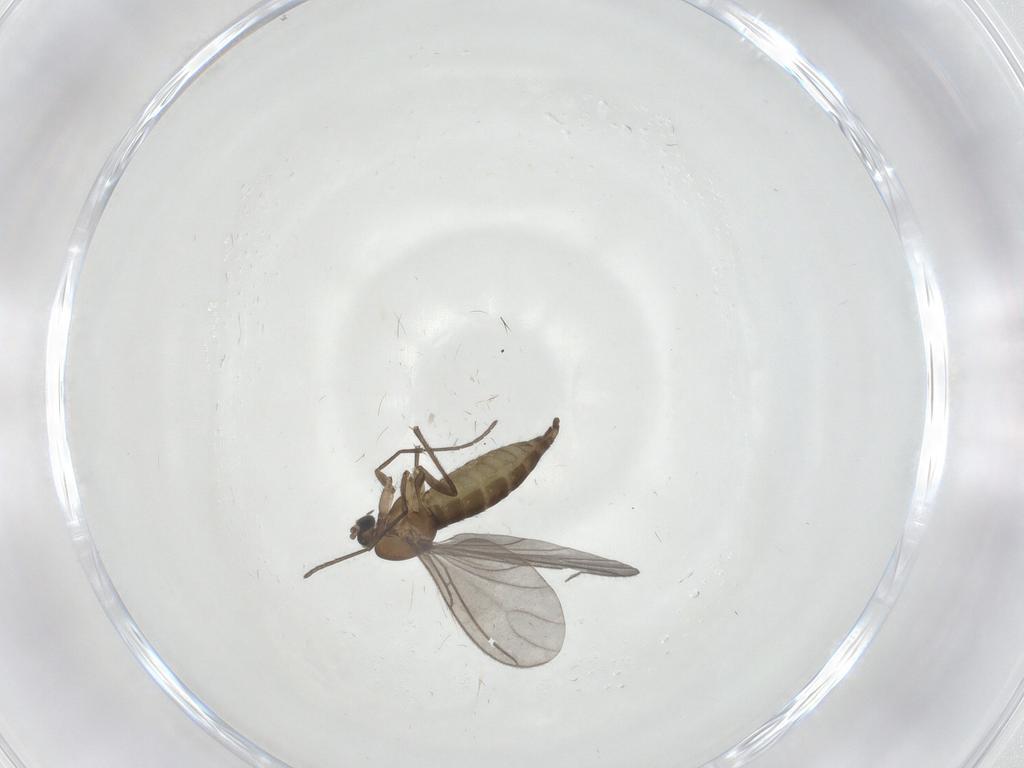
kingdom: Animalia
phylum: Arthropoda
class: Insecta
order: Diptera
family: Sciaridae
